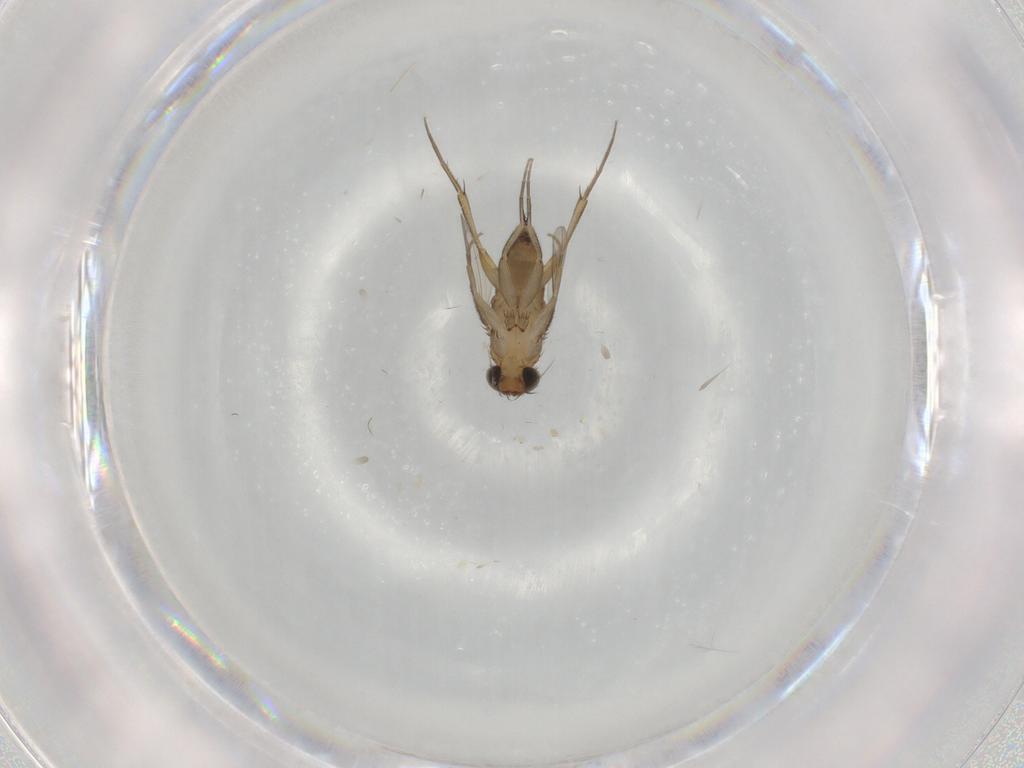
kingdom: Animalia
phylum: Arthropoda
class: Insecta
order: Diptera
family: Phoridae
